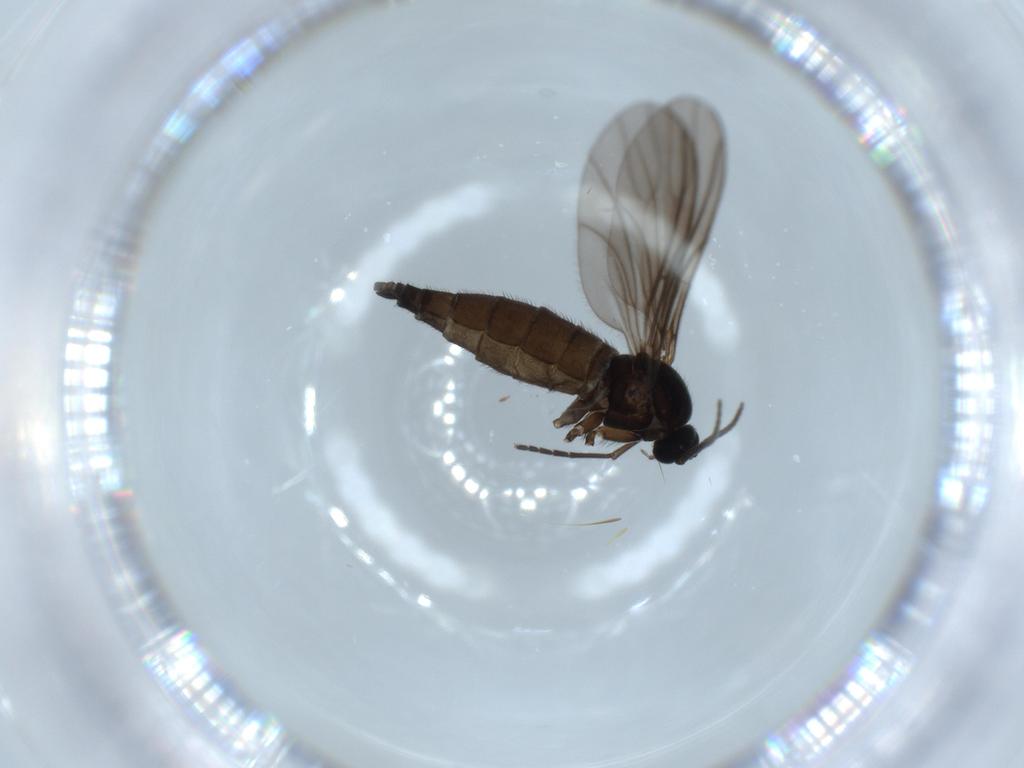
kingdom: Animalia
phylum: Arthropoda
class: Insecta
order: Diptera
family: Sciaridae
